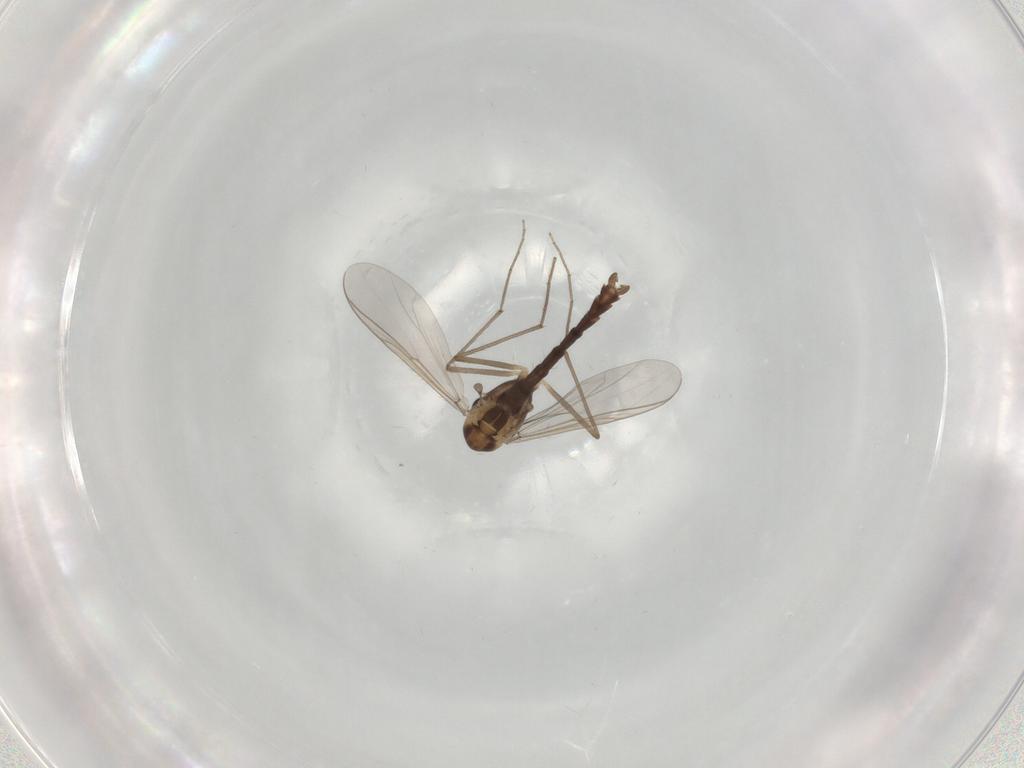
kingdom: Animalia
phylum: Arthropoda
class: Insecta
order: Diptera
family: Chironomidae
